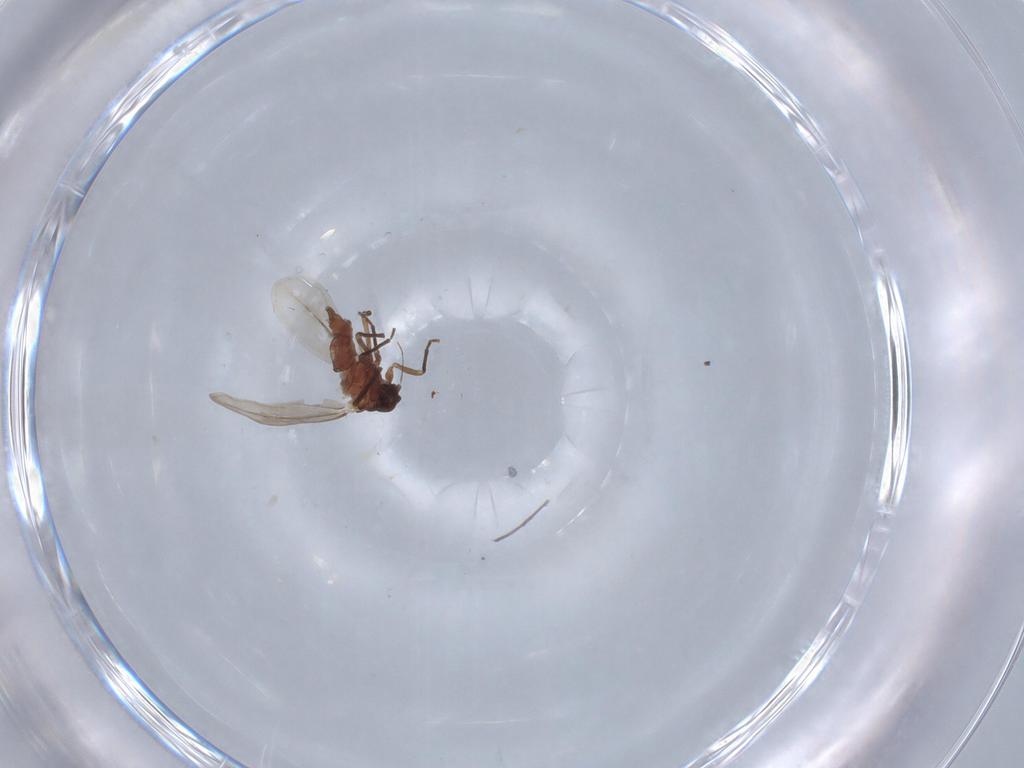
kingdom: Animalia
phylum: Arthropoda
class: Insecta
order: Hemiptera
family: Aleyrodidae
